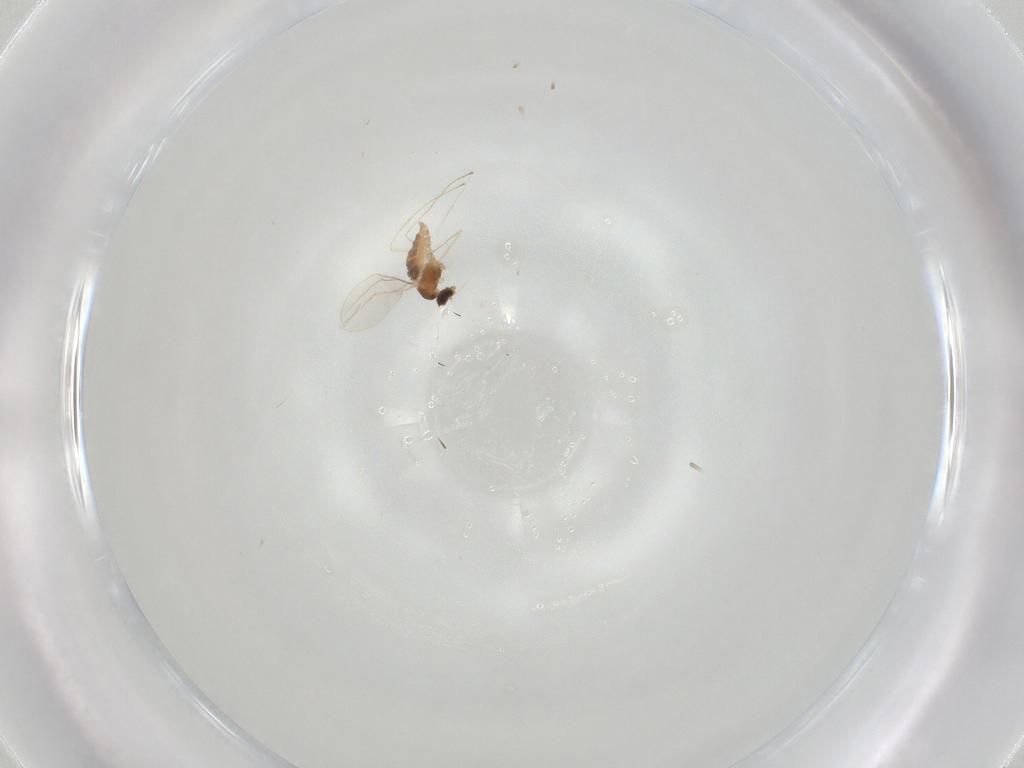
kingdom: Animalia
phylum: Arthropoda
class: Insecta
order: Diptera
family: Cecidomyiidae
